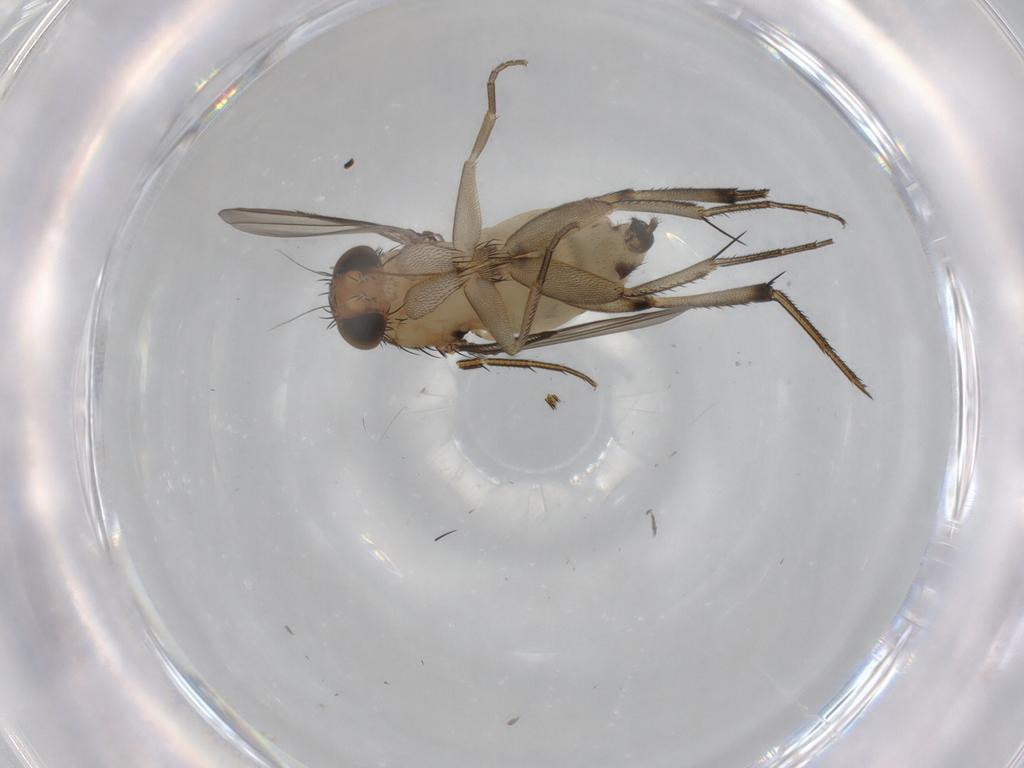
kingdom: Animalia
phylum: Arthropoda
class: Insecta
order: Diptera
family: Phoridae
